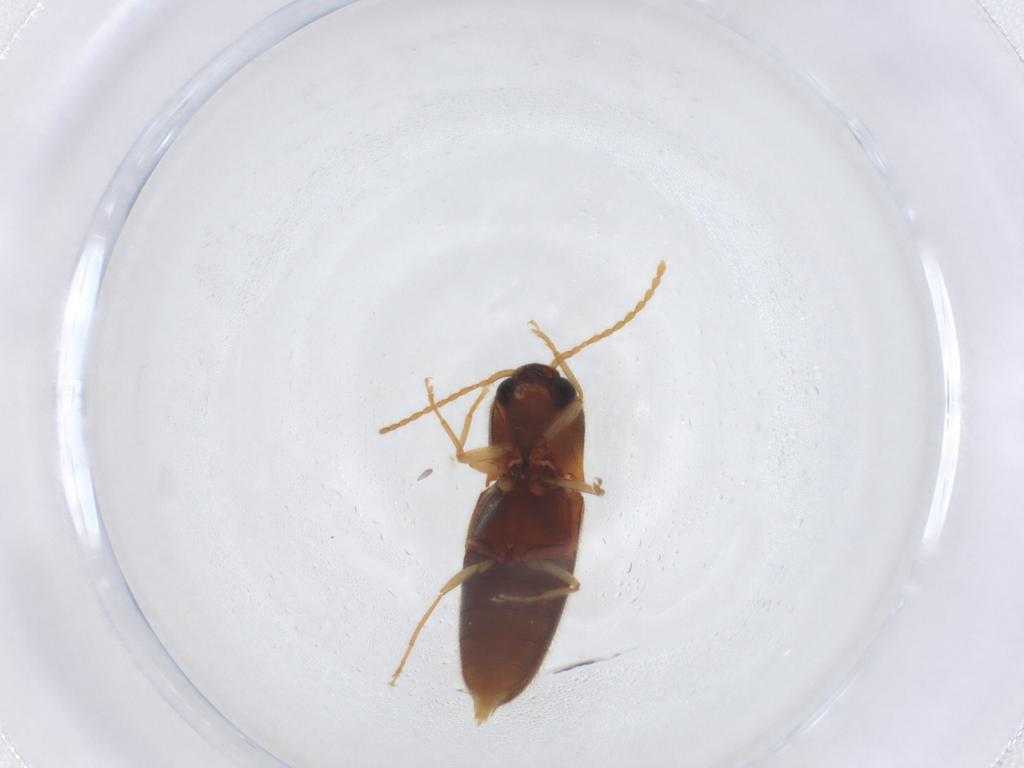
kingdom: Animalia
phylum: Arthropoda
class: Insecta
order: Coleoptera
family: Elateridae
